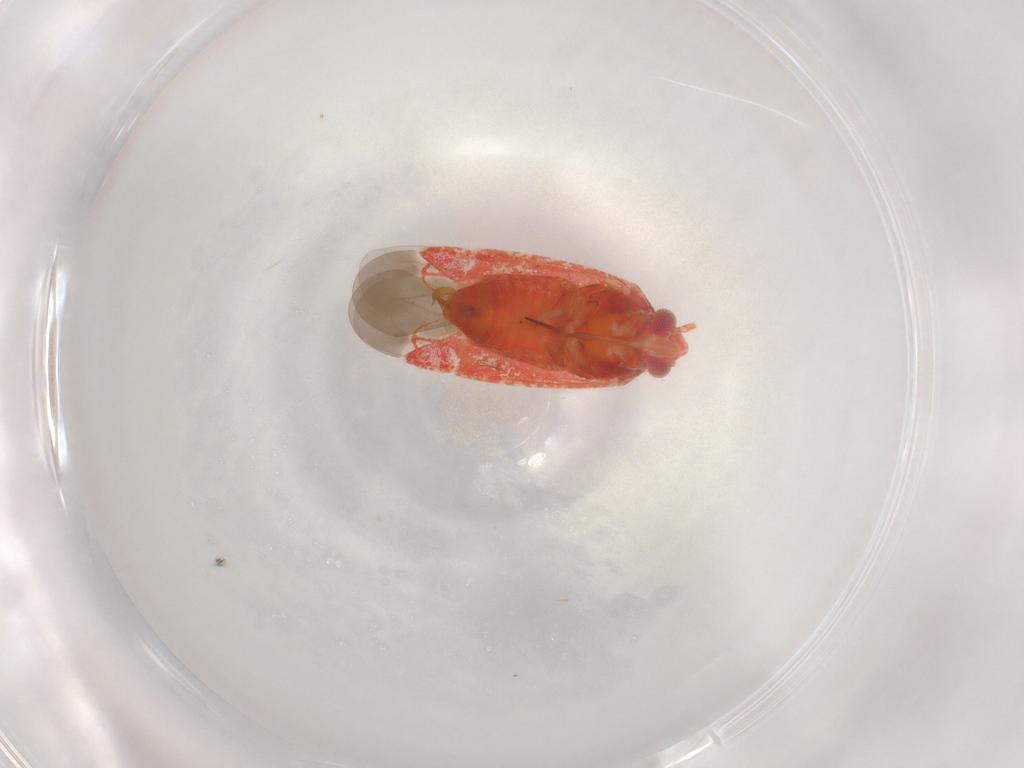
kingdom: Animalia
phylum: Arthropoda
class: Insecta
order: Hemiptera
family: Miridae
